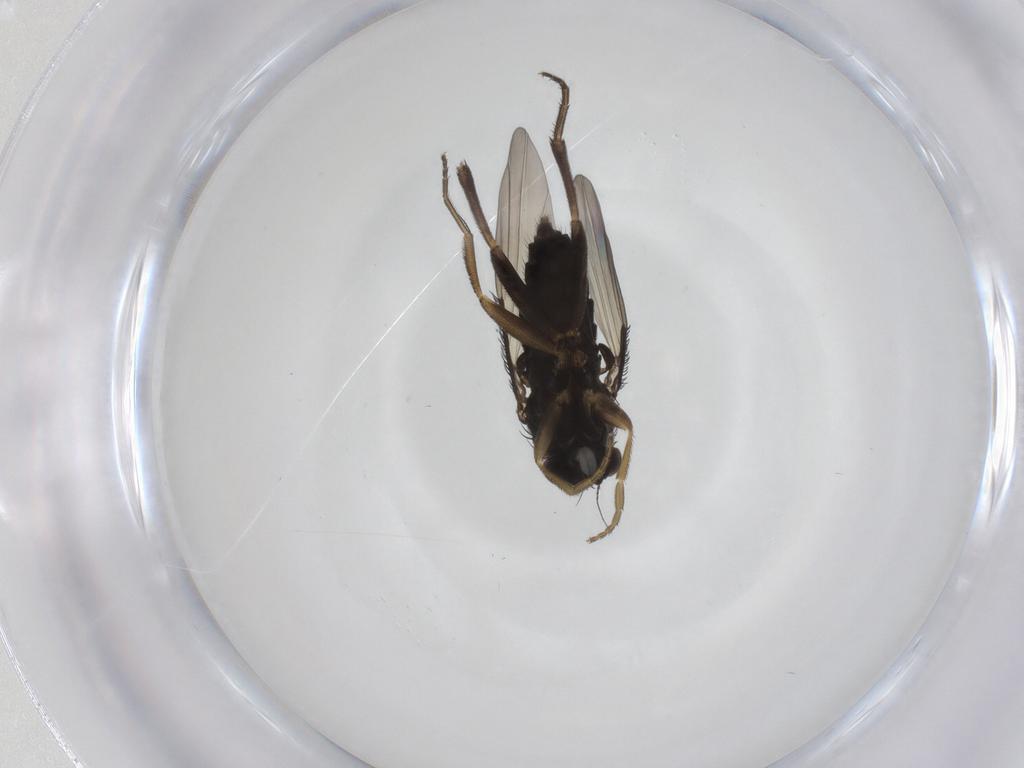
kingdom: Animalia
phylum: Arthropoda
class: Insecta
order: Diptera
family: Phoridae
